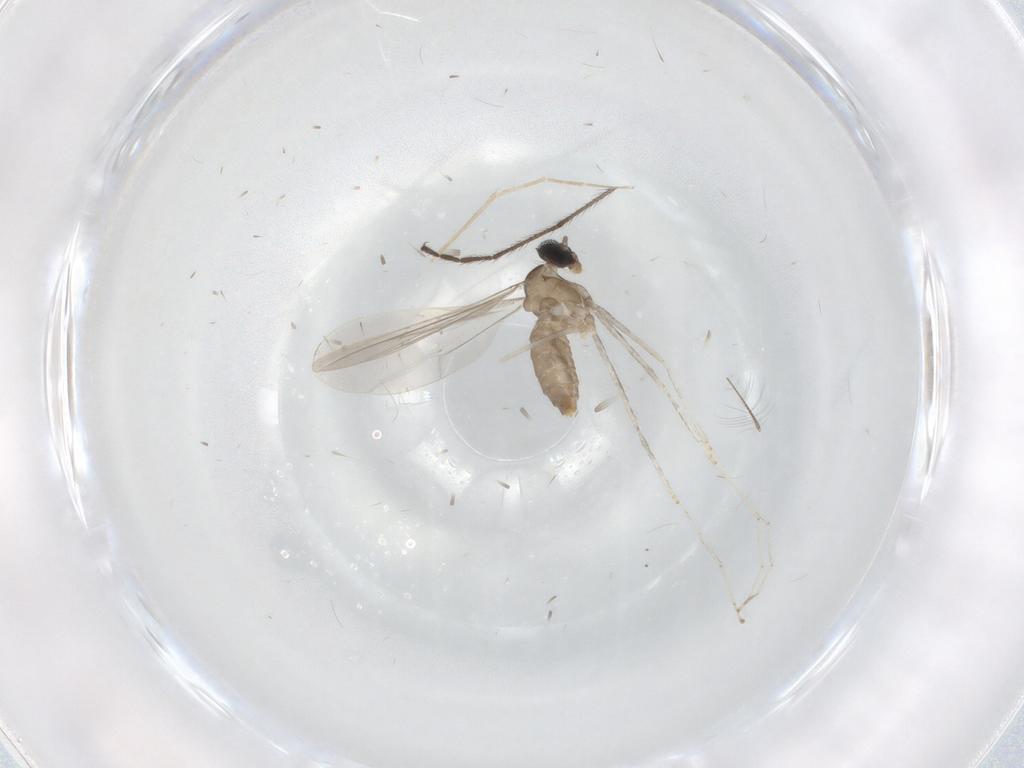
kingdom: Animalia
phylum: Arthropoda
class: Insecta
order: Diptera
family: Cecidomyiidae
